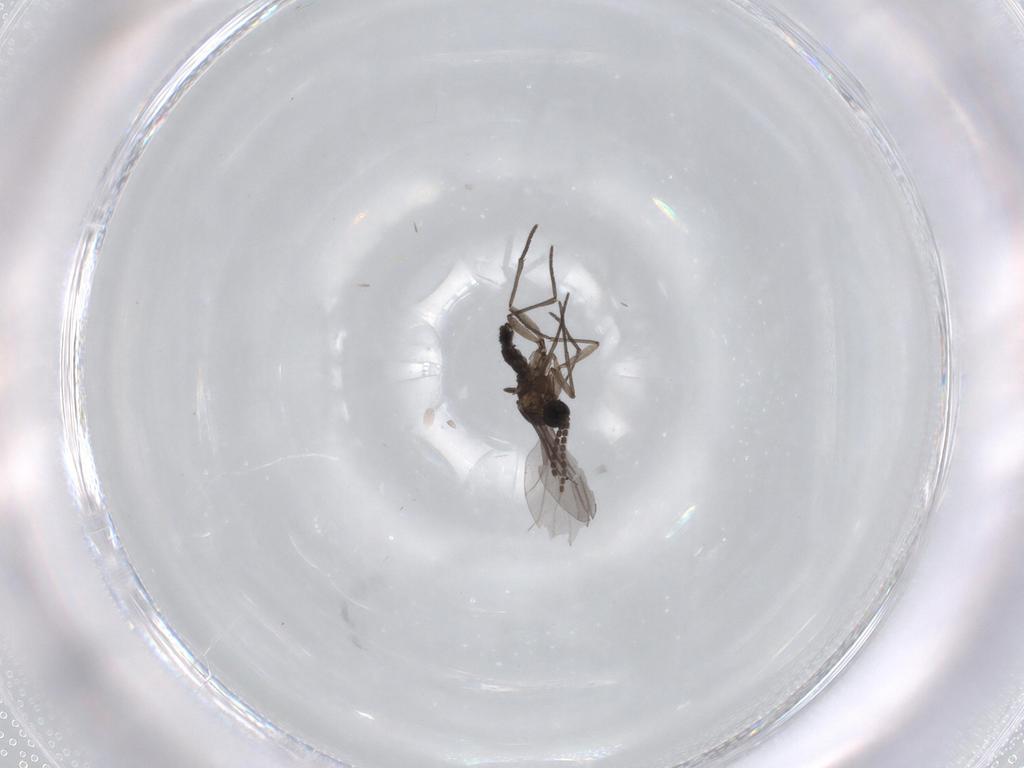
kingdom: Animalia
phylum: Arthropoda
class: Insecta
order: Diptera
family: Sciaridae
